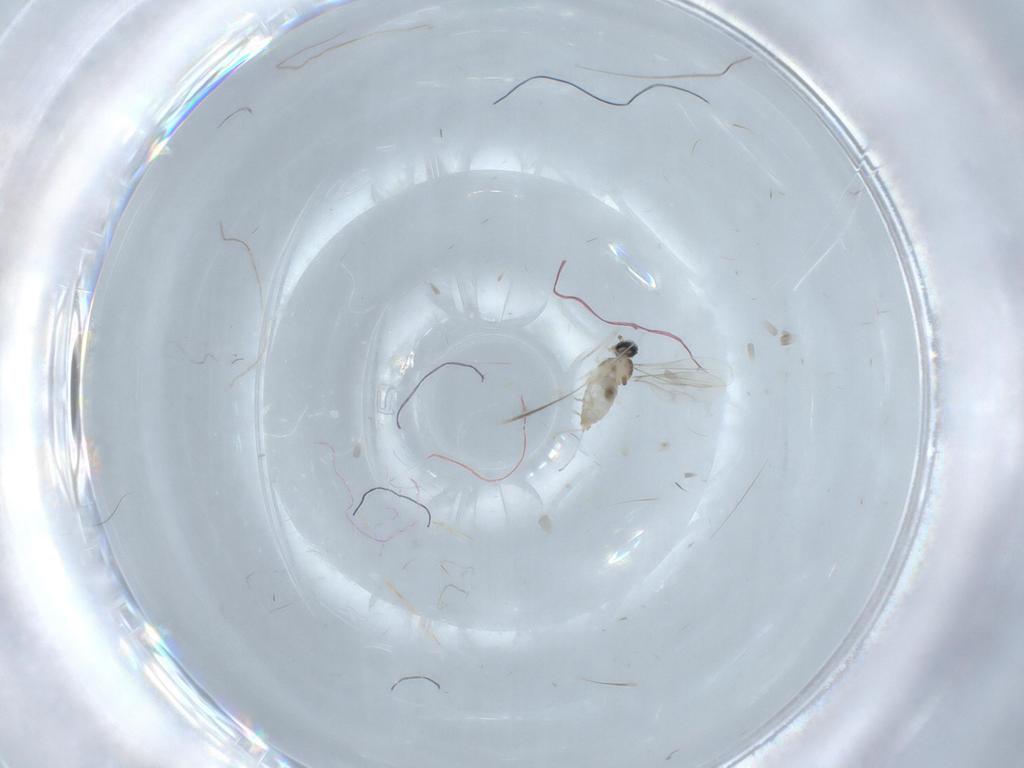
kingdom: Animalia
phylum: Arthropoda
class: Insecta
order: Diptera
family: Cecidomyiidae
